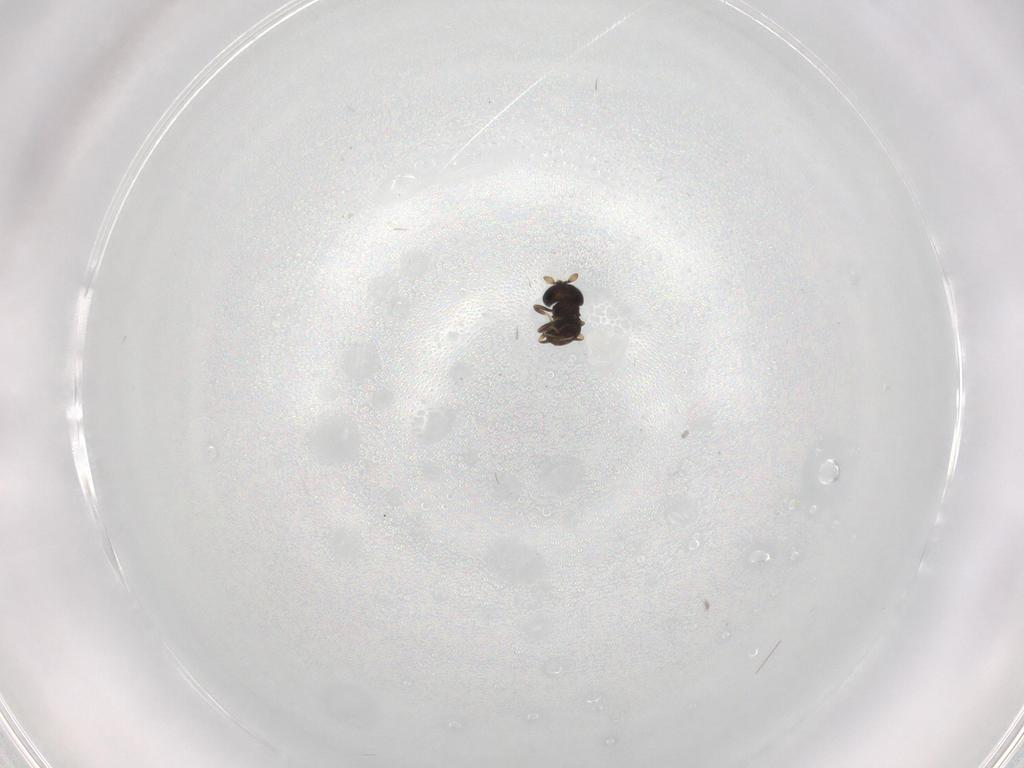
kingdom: Animalia
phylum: Arthropoda
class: Insecta
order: Hymenoptera
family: Scelionidae
